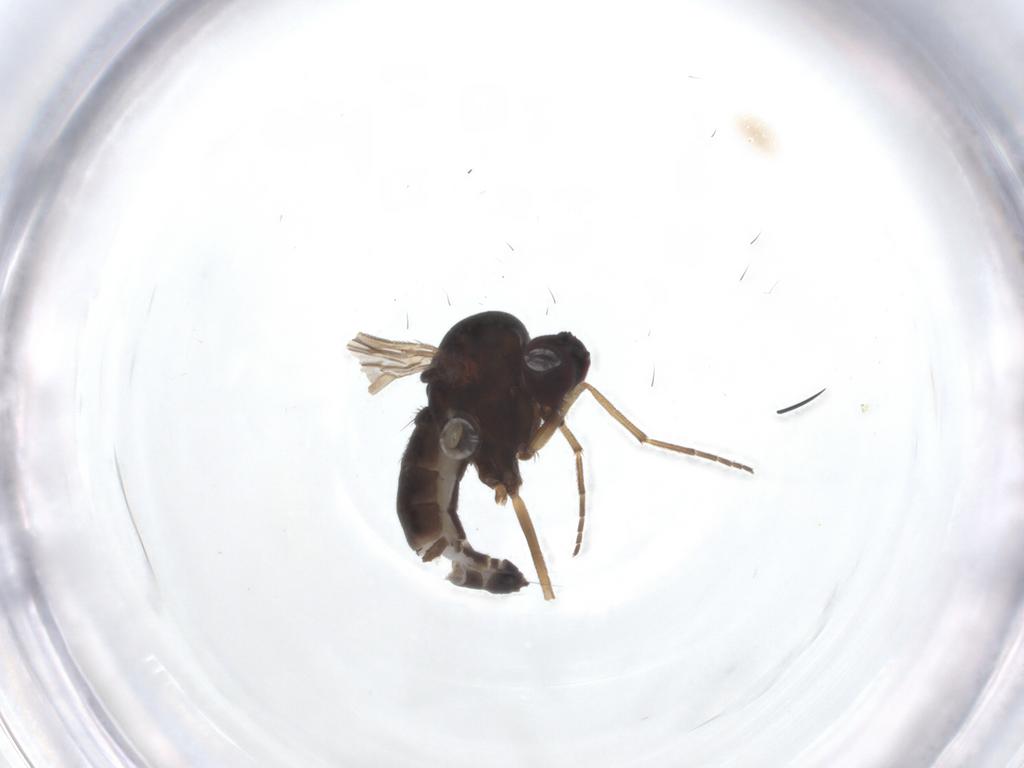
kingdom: Animalia
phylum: Arthropoda
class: Insecta
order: Diptera
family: Dolichopodidae
